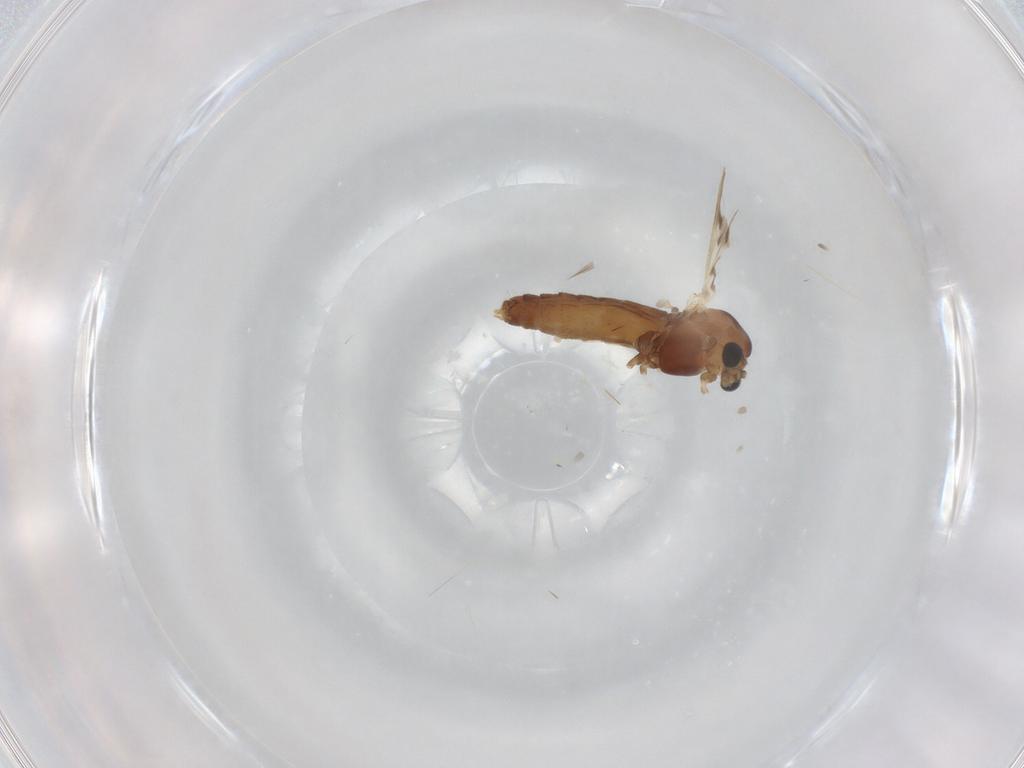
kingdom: Animalia
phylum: Arthropoda
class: Insecta
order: Diptera
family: Chironomidae
